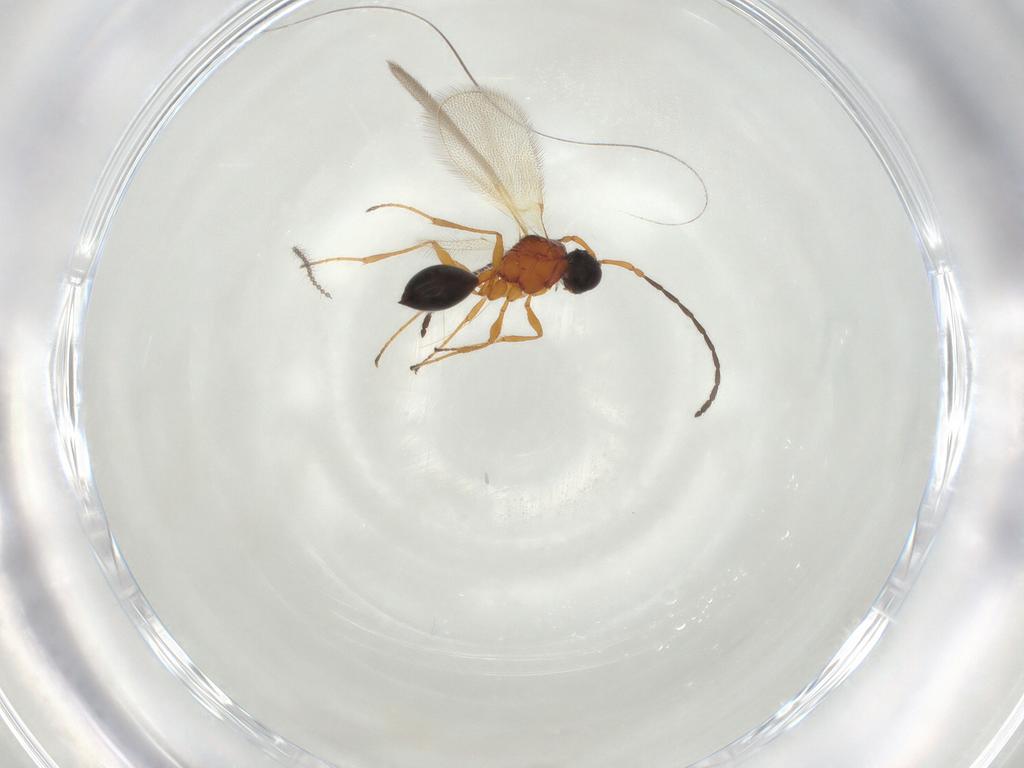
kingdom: Animalia
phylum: Arthropoda
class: Insecta
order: Hymenoptera
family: Diapriidae
